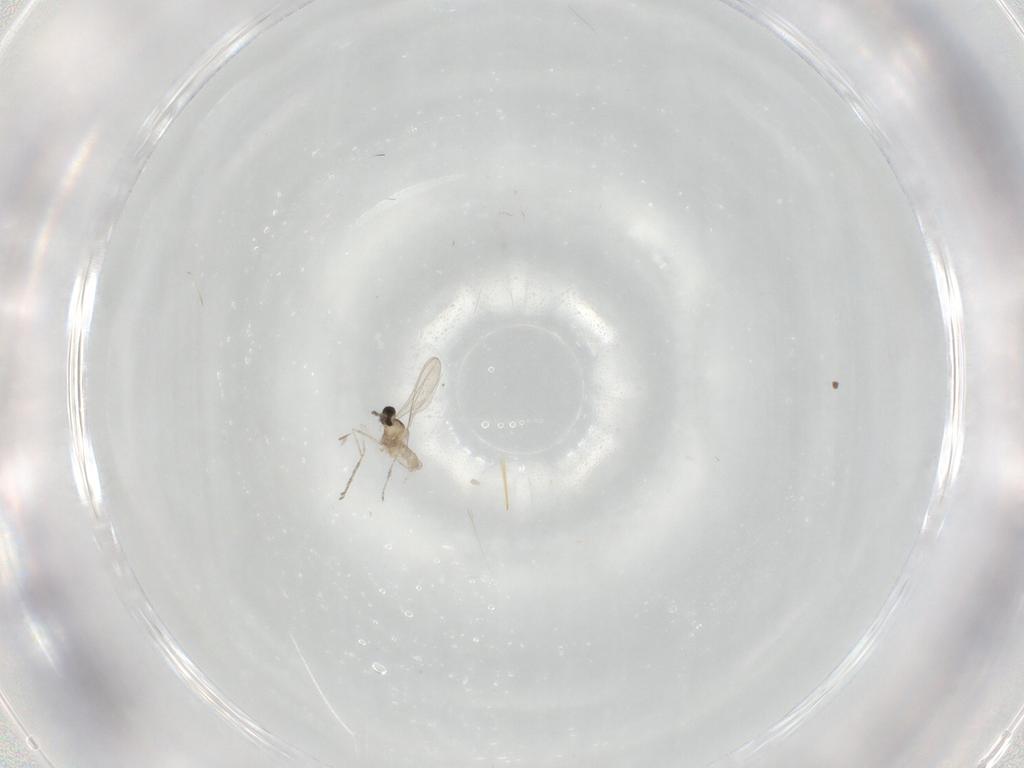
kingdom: Animalia
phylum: Arthropoda
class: Insecta
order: Diptera
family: Cecidomyiidae
